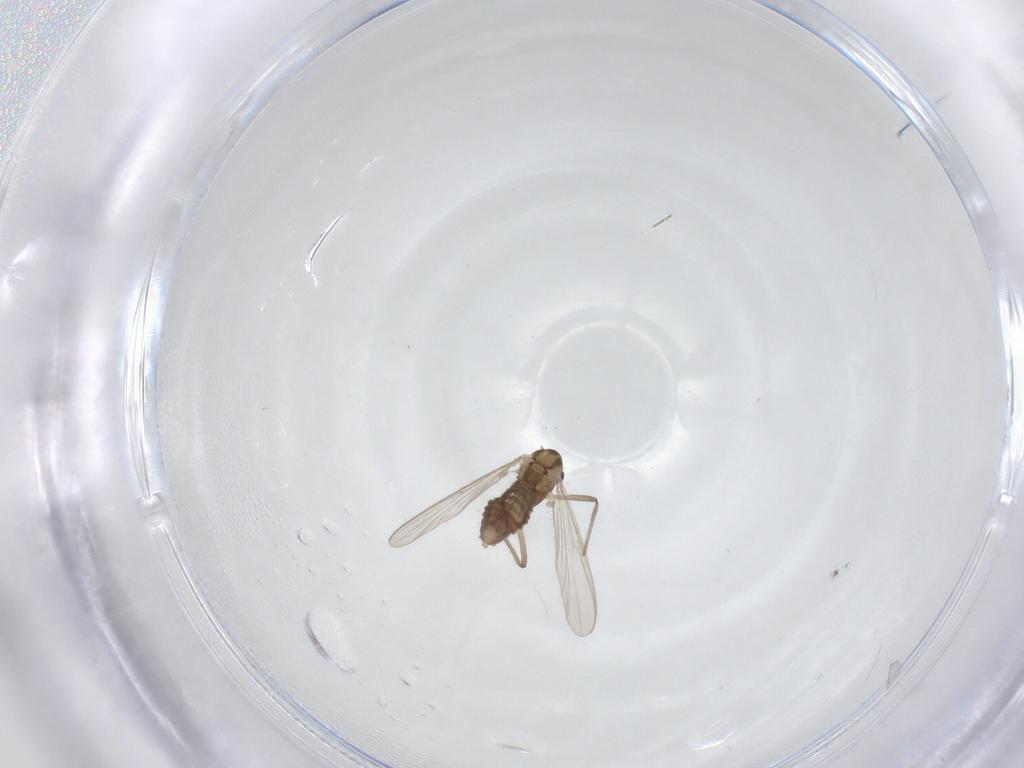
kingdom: Animalia
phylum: Arthropoda
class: Insecta
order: Diptera
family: Chironomidae
